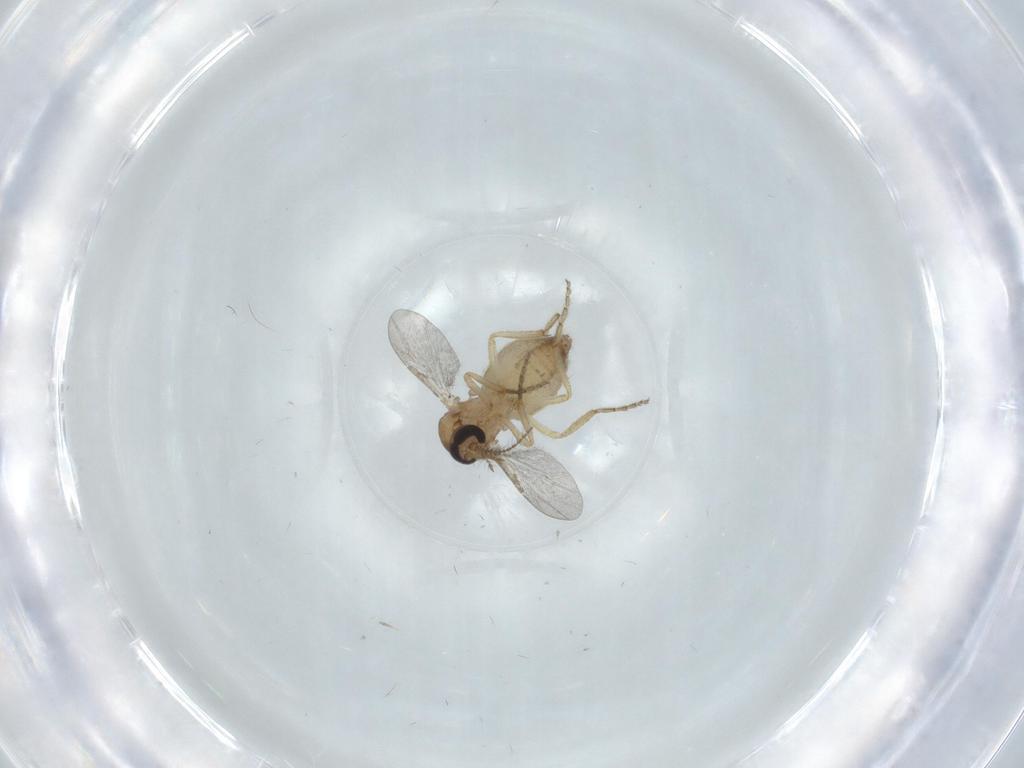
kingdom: Animalia
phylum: Arthropoda
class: Insecta
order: Diptera
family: Ceratopogonidae
